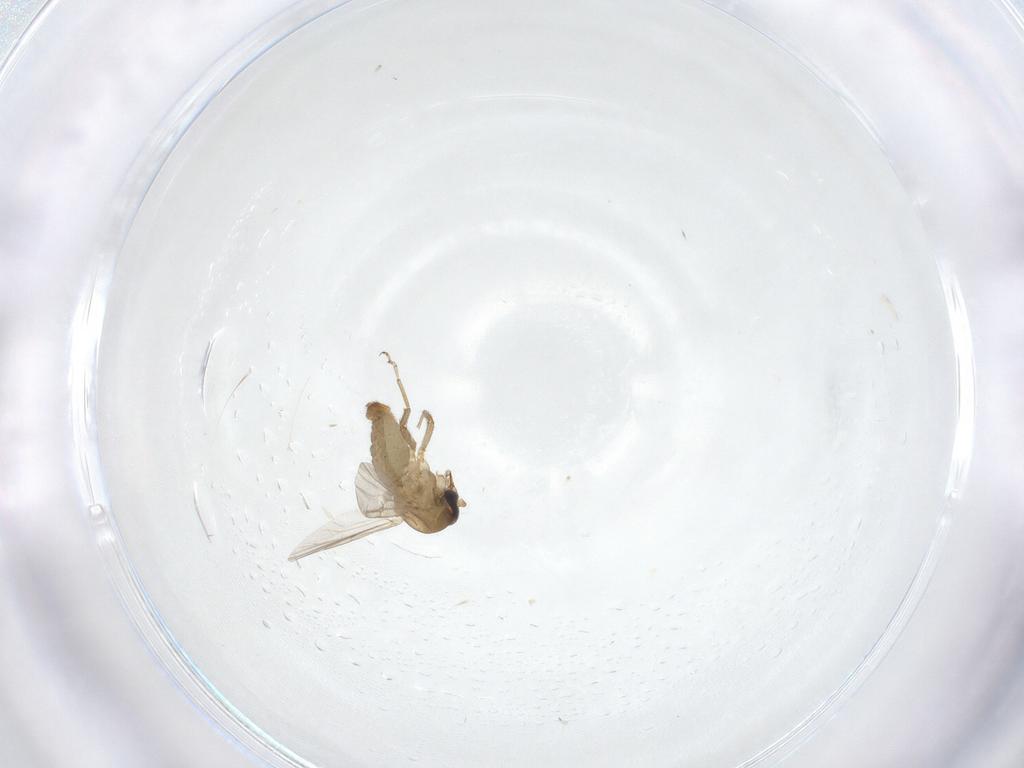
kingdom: Animalia
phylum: Arthropoda
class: Insecta
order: Diptera
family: Ceratopogonidae
